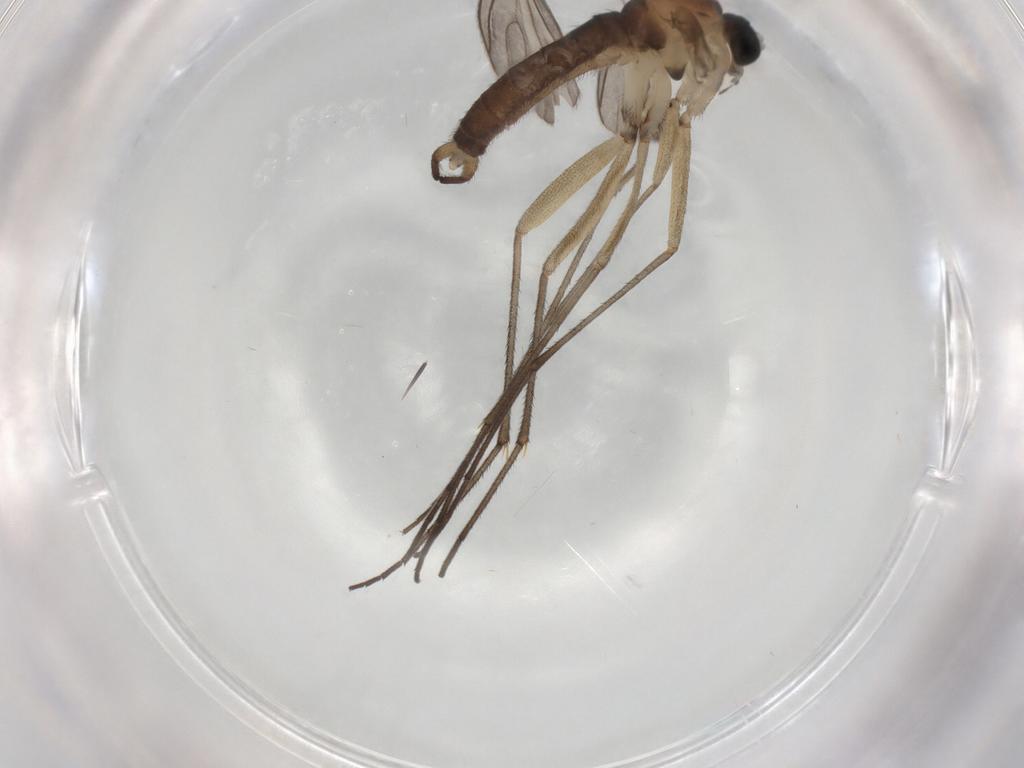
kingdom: Animalia
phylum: Arthropoda
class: Insecta
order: Diptera
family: Sciaridae
